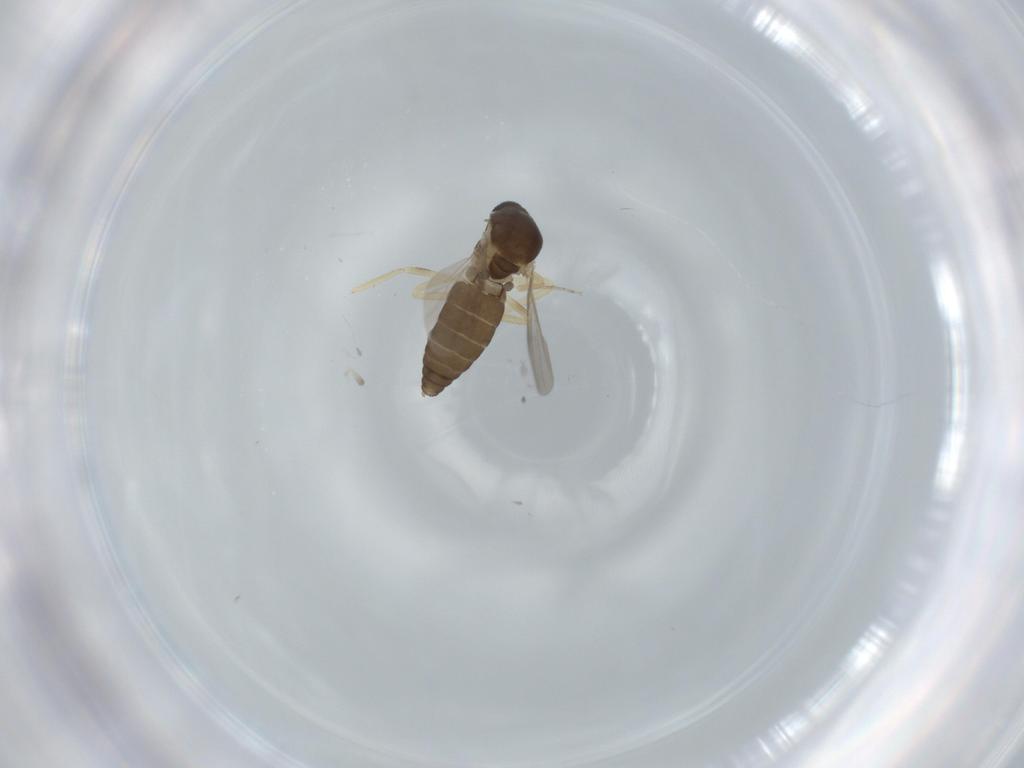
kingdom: Animalia
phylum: Arthropoda
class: Insecta
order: Diptera
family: Ceratopogonidae
